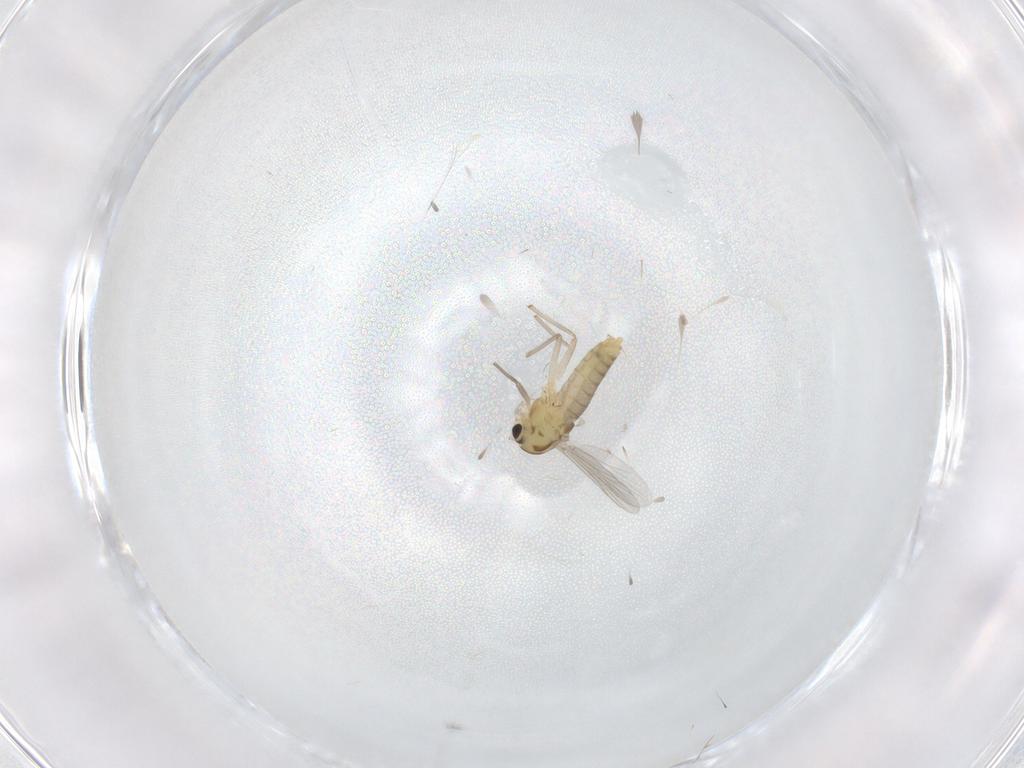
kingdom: Animalia
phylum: Arthropoda
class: Insecta
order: Diptera
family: Chironomidae
